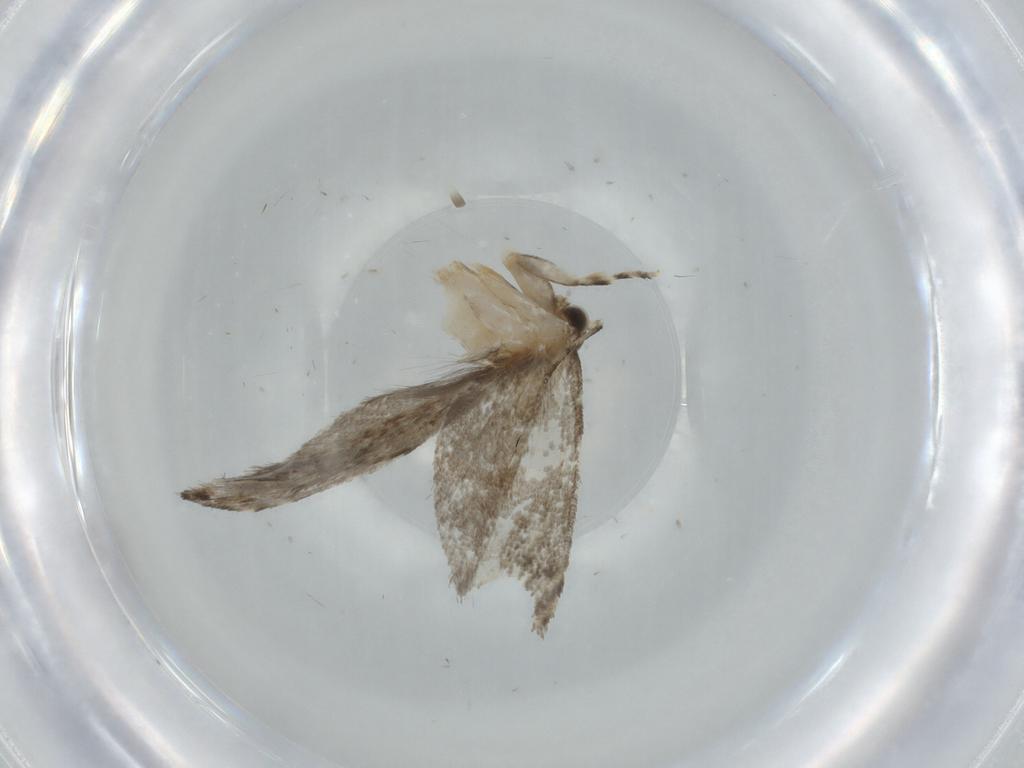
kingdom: Animalia
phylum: Arthropoda
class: Insecta
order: Lepidoptera
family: Tineidae
